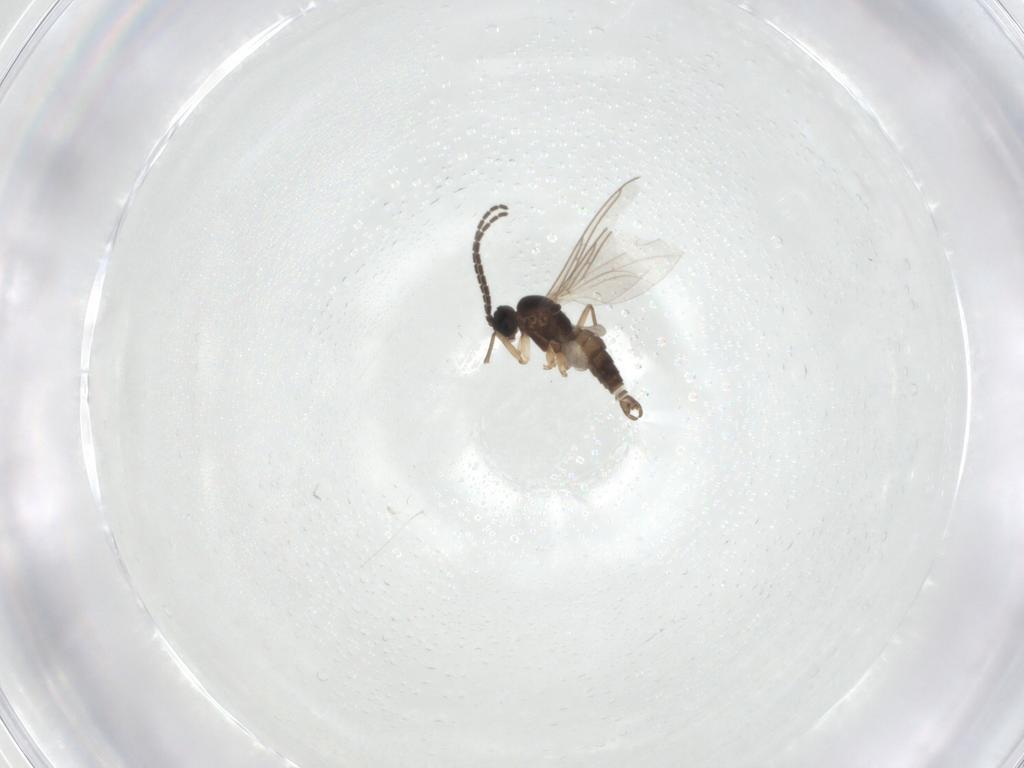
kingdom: Animalia
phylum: Arthropoda
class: Insecta
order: Diptera
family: Sciaridae
